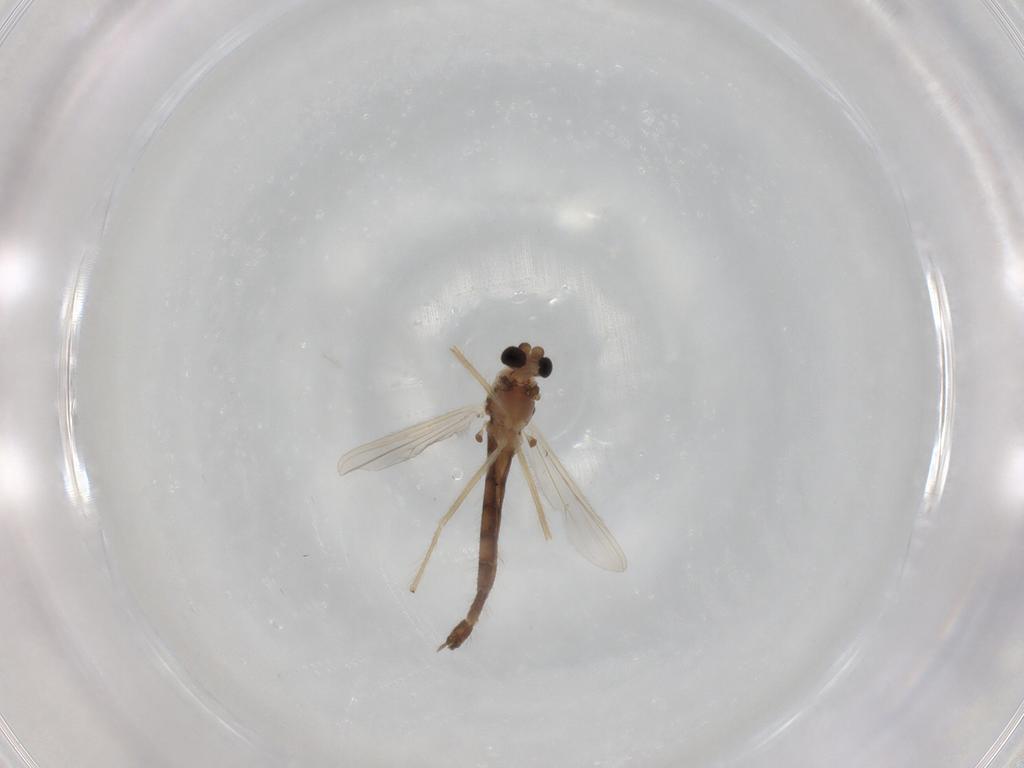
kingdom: Animalia
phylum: Arthropoda
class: Insecta
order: Diptera
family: Chironomidae
